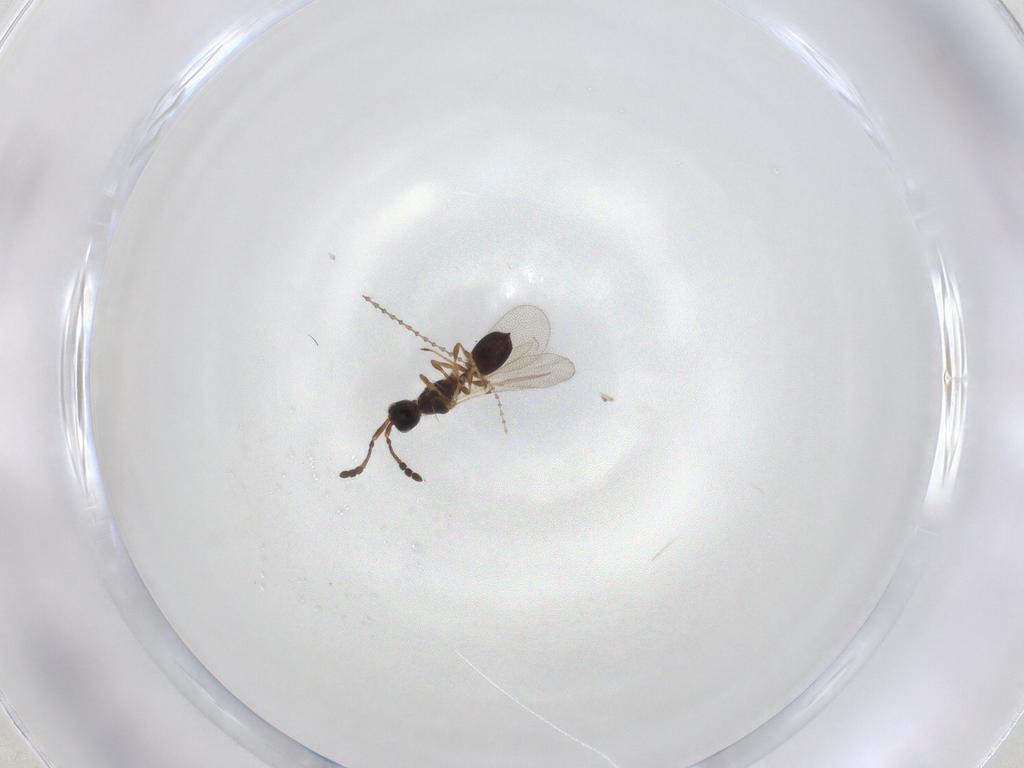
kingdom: Animalia
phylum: Arthropoda
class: Insecta
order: Hymenoptera
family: Ichneumonidae
